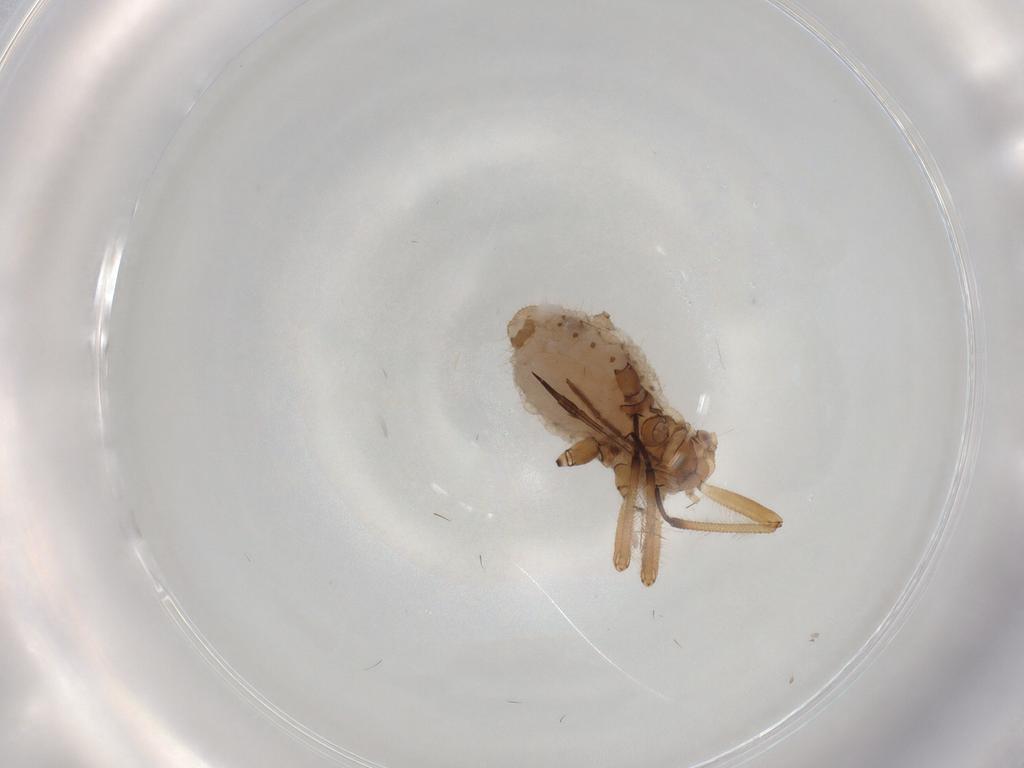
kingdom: Animalia
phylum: Arthropoda
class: Insecta
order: Hemiptera
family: Aphididae
